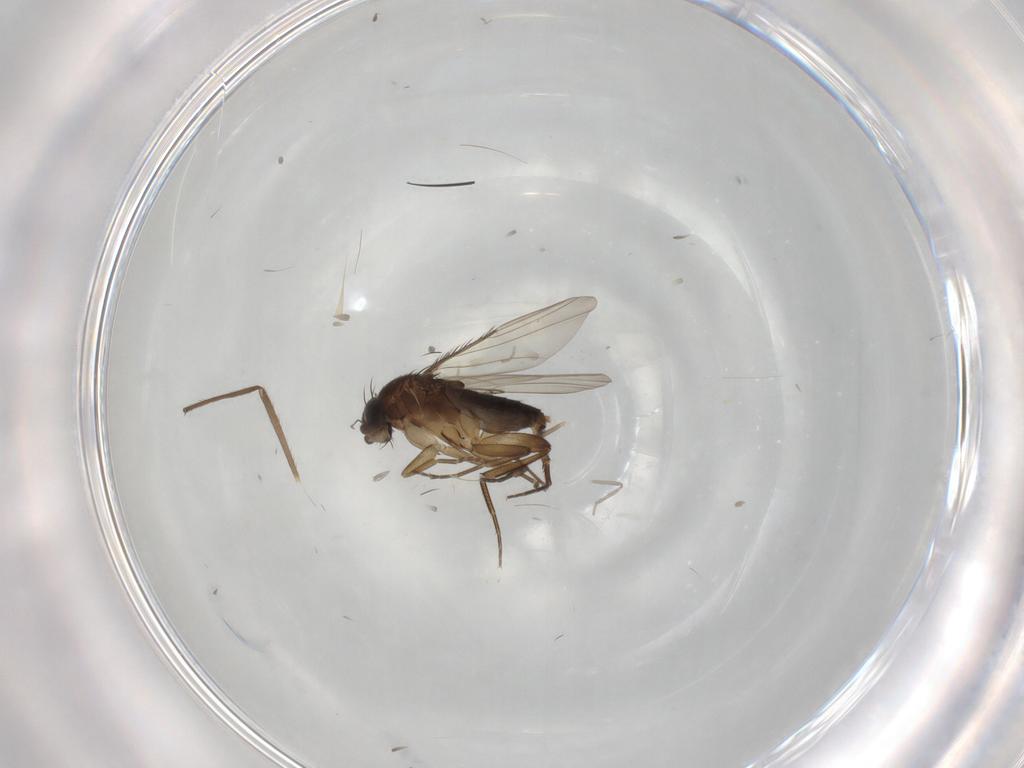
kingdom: Animalia
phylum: Arthropoda
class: Insecta
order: Diptera
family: Phoridae
